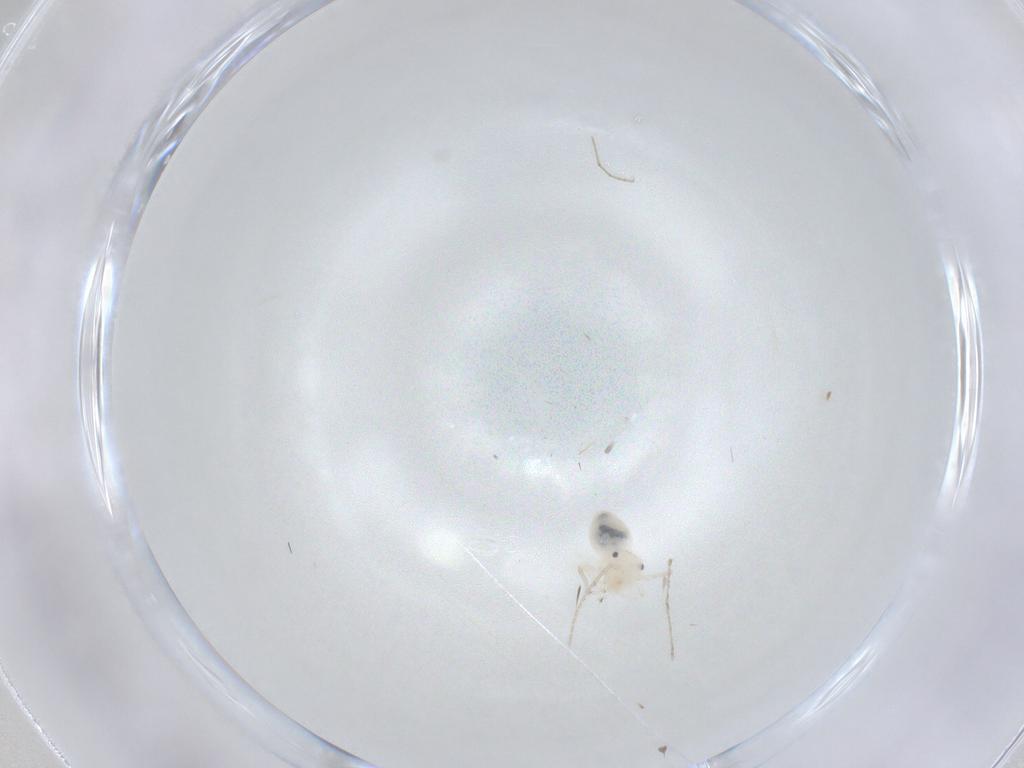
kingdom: Animalia
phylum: Arthropoda
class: Insecta
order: Psocodea
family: Philotarsidae
